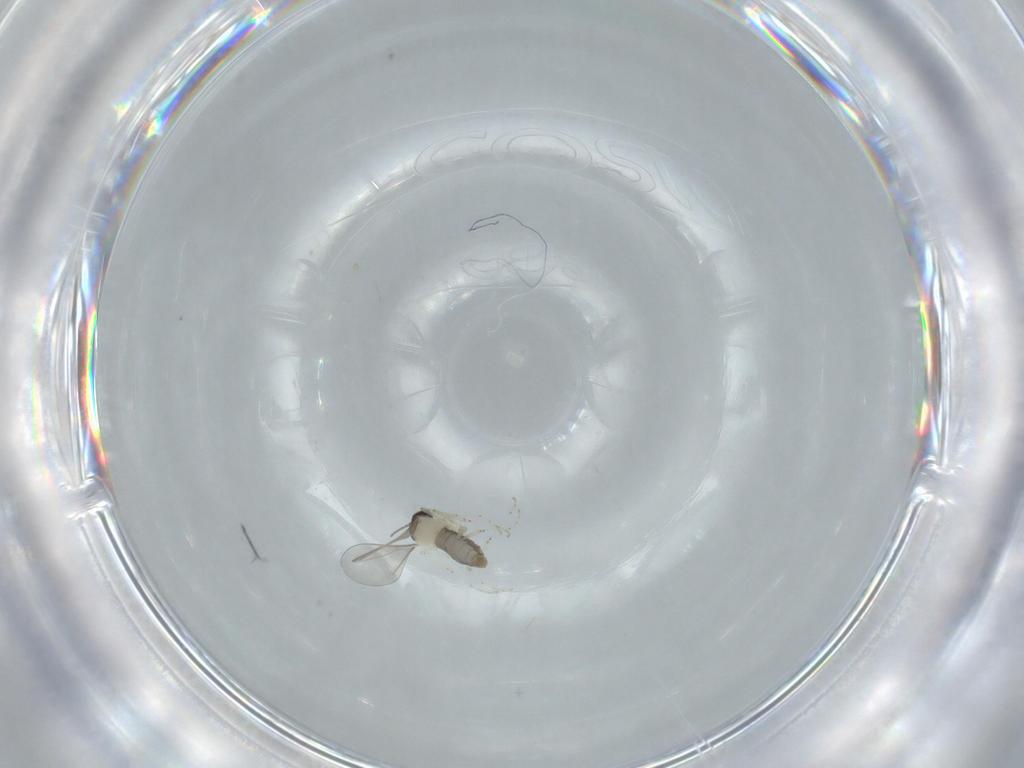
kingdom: Animalia
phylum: Arthropoda
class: Insecta
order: Diptera
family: Cecidomyiidae
